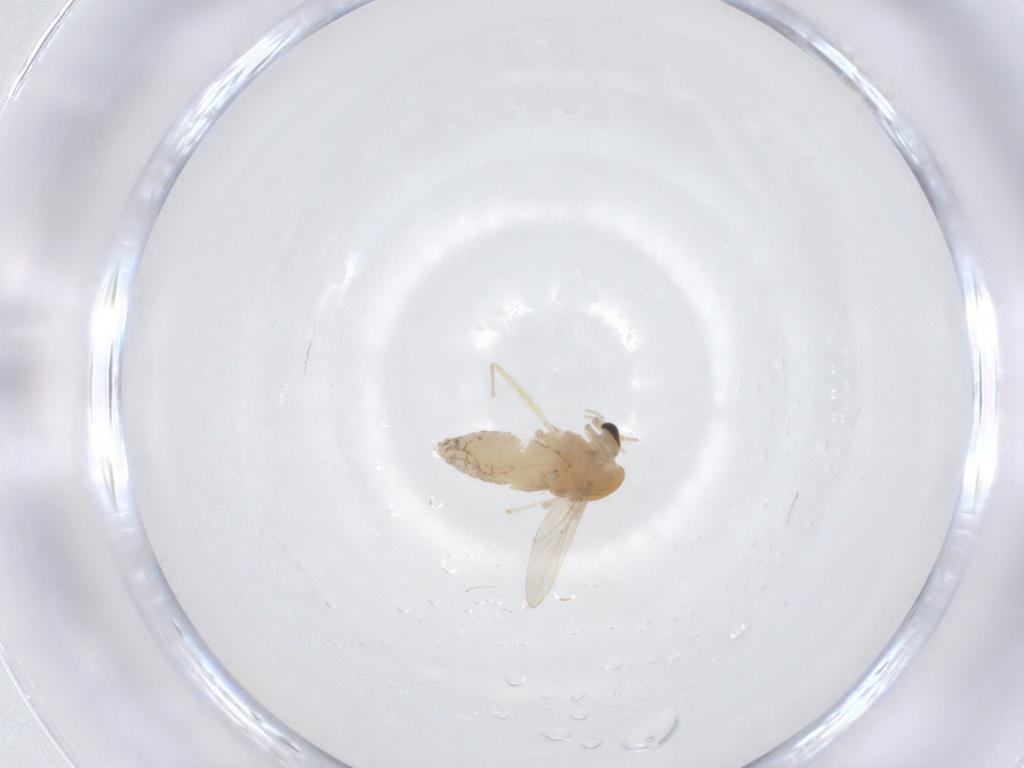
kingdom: Animalia
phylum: Arthropoda
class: Insecta
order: Diptera
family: Chironomidae
